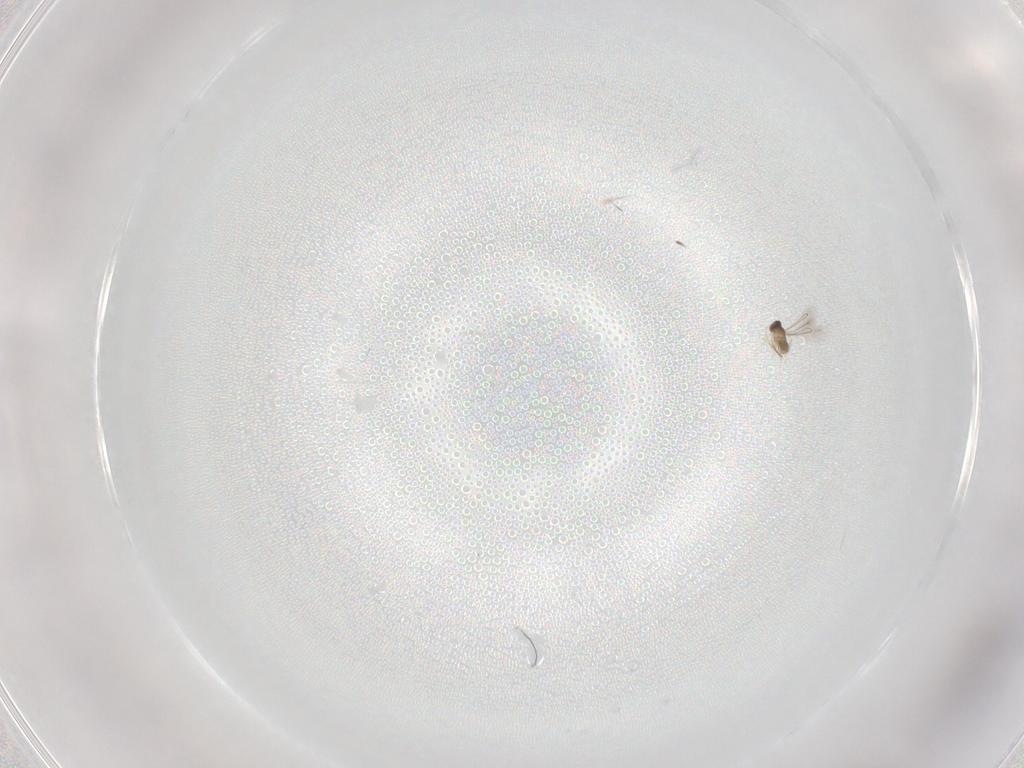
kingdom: Animalia
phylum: Arthropoda
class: Insecta
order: Hymenoptera
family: Mymaridae
